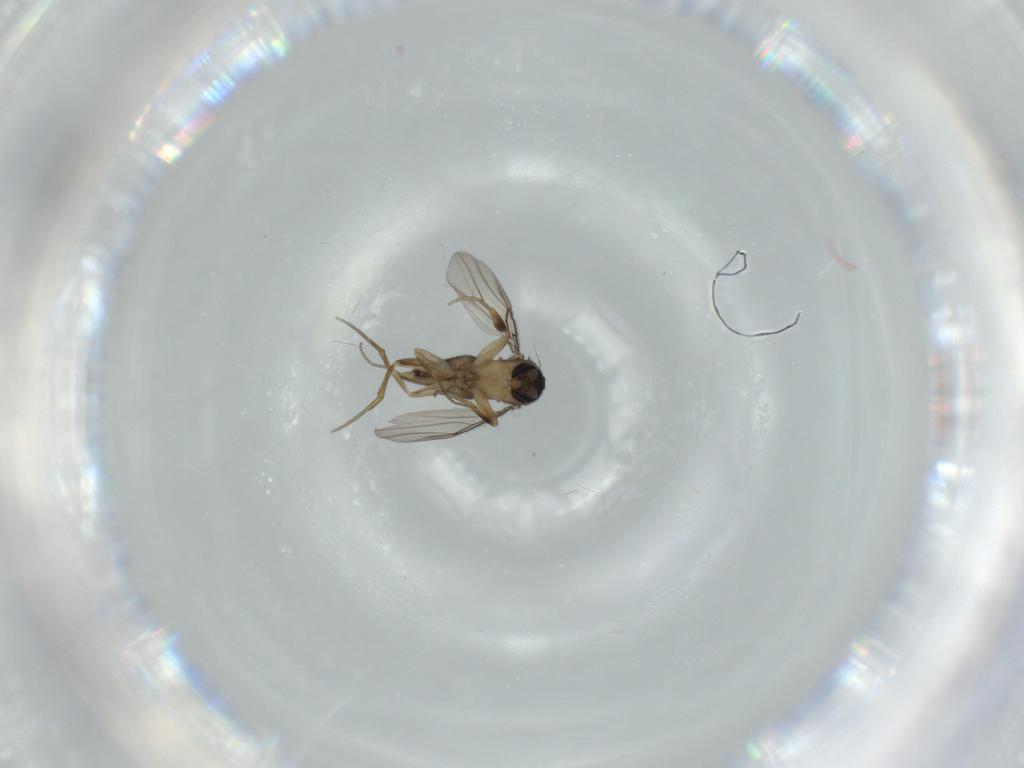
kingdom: Animalia
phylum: Arthropoda
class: Insecta
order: Diptera
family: Phoridae
